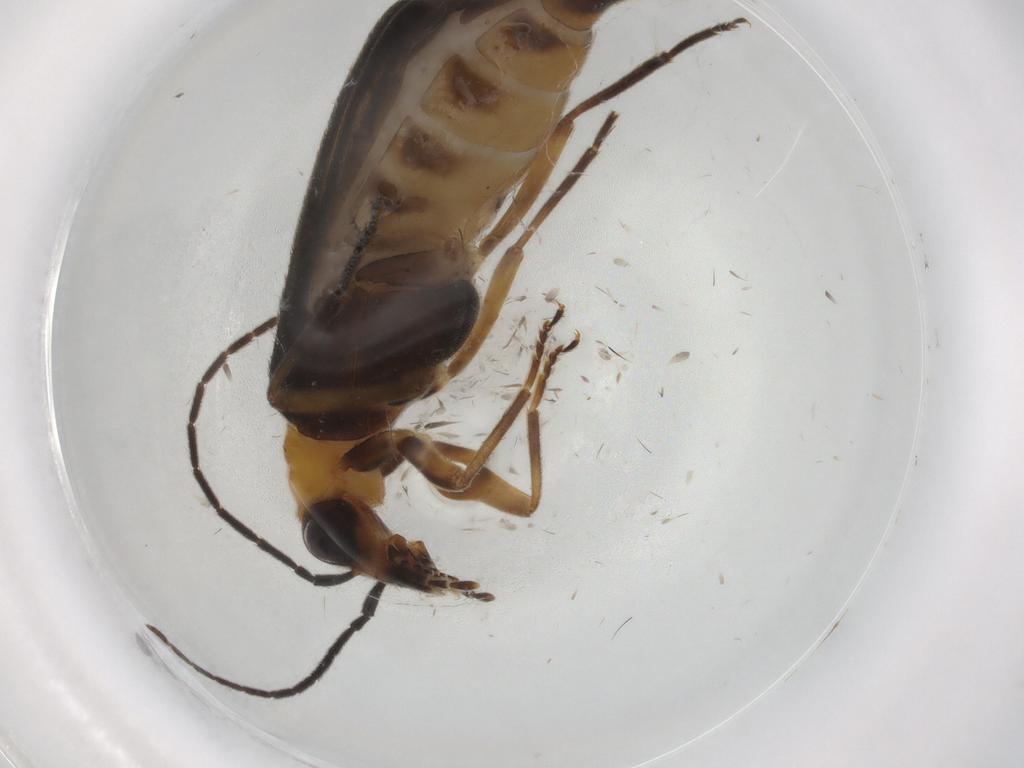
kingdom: Animalia
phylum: Arthropoda
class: Insecta
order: Coleoptera
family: Oedemeridae
